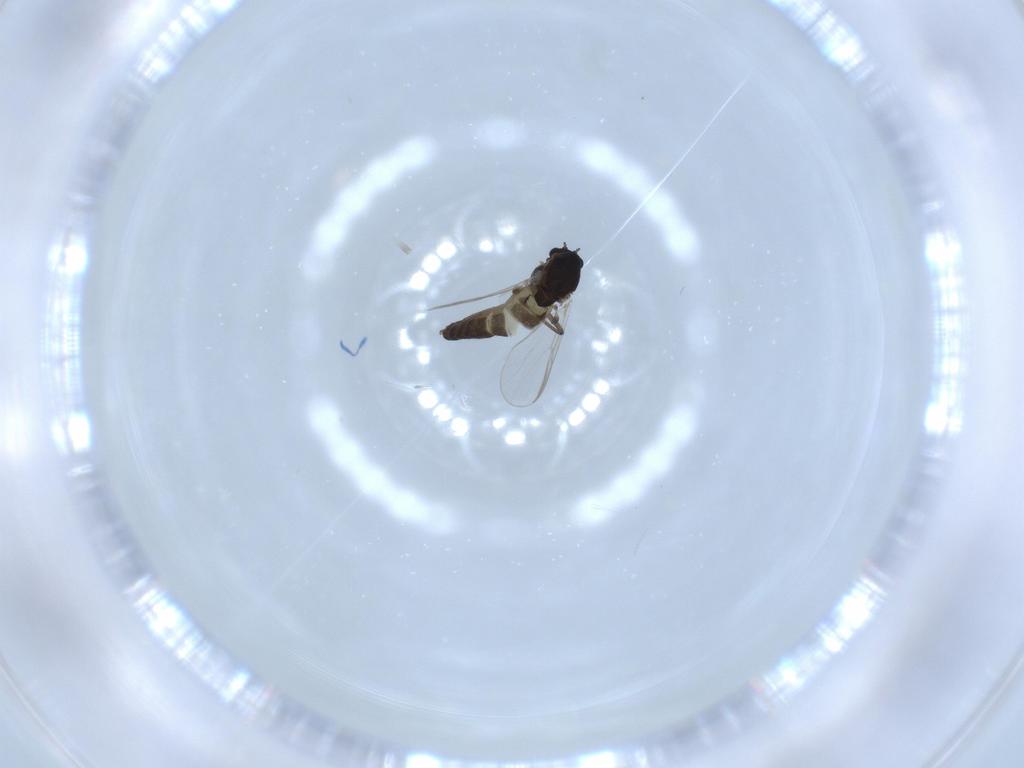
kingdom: Animalia
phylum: Arthropoda
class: Insecta
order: Diptera
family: Chironomidae
